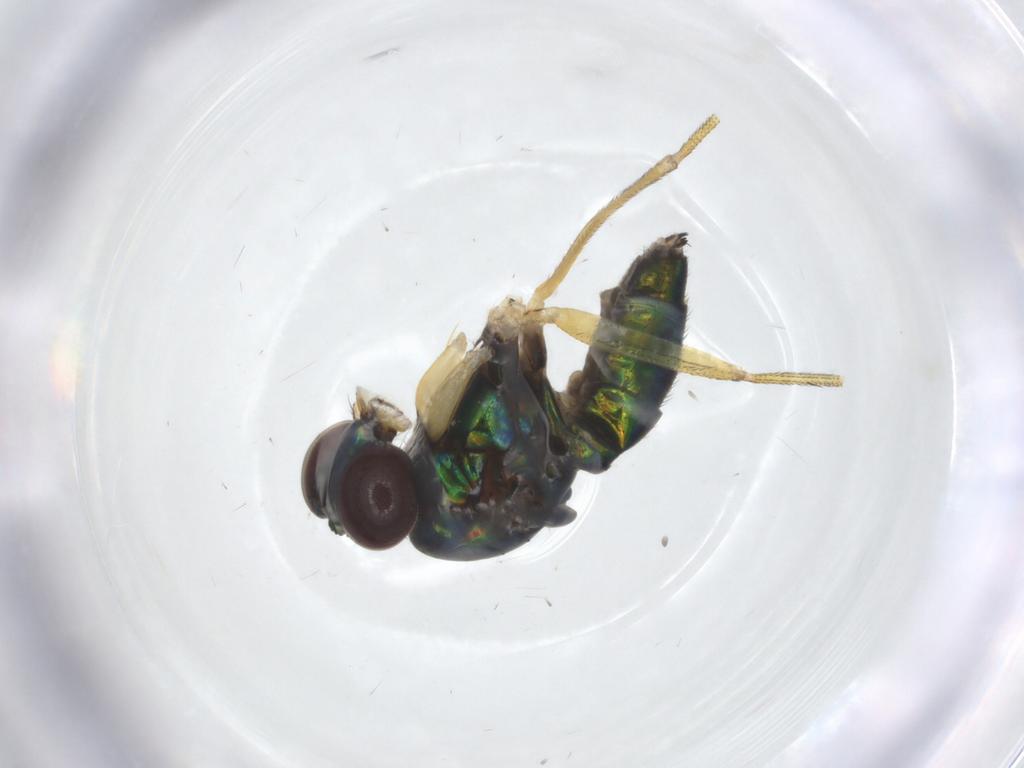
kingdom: Animalia
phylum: Arthropoda
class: Insecta
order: Diptera
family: Dolichopodidae
